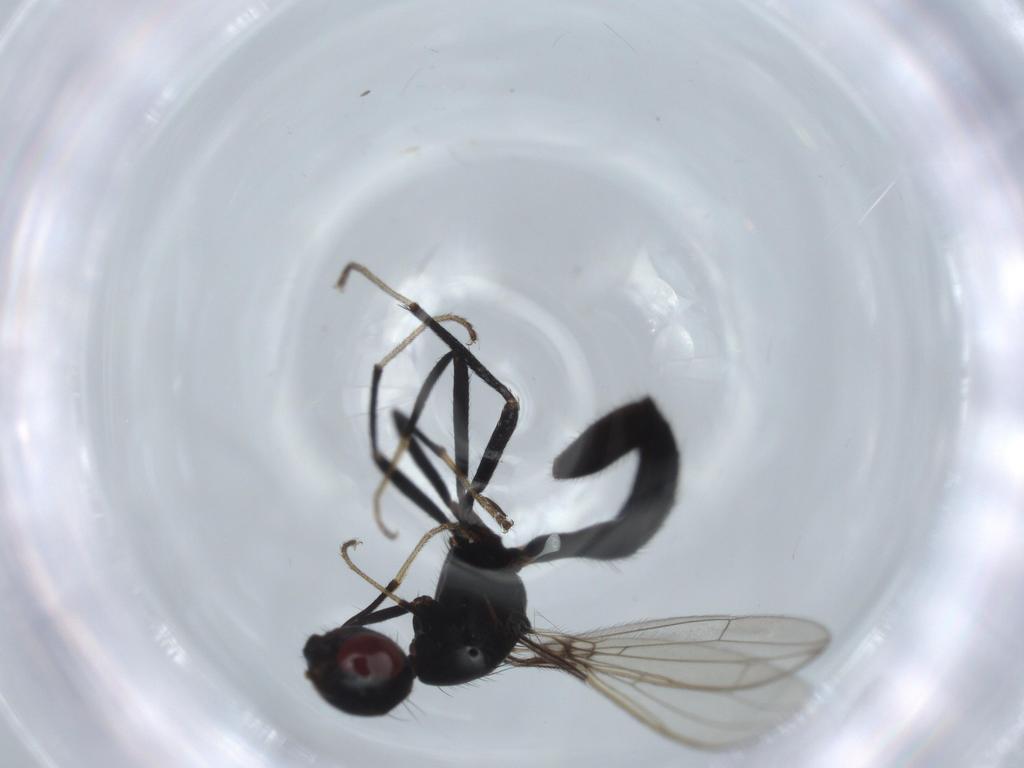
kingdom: Animalia
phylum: Arthropoda
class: Insecta
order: Diptera
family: Richardiidae
